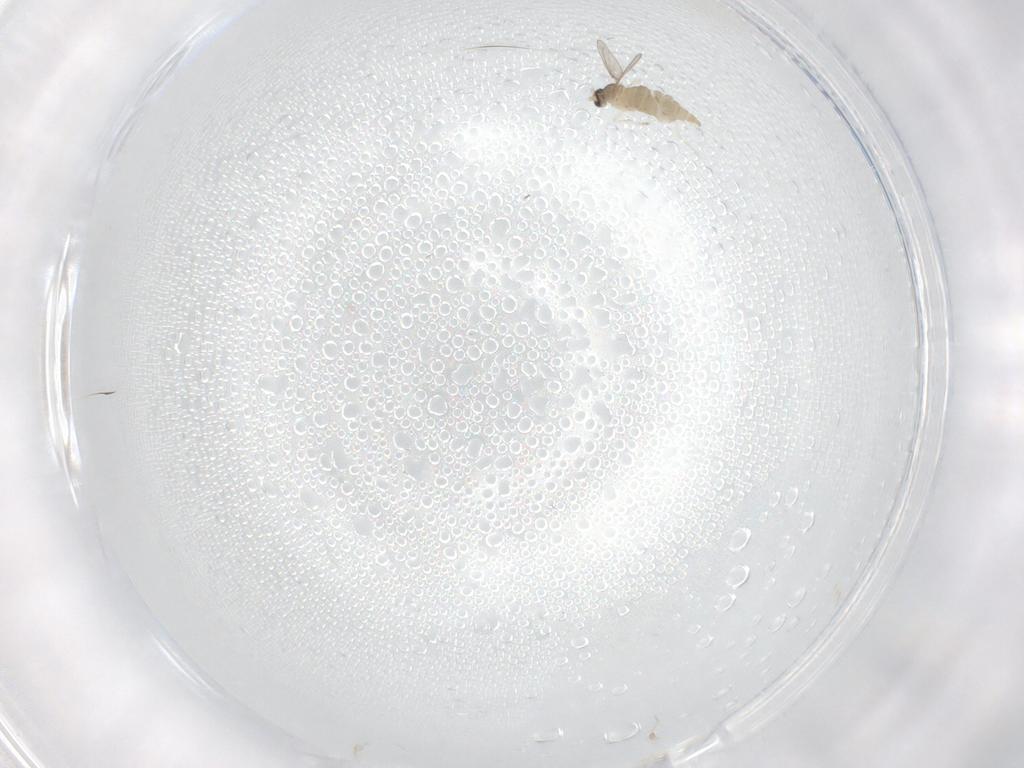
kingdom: Animalia
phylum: Arthropoda
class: Insecta
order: Diptera
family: Cecidomyiidae
